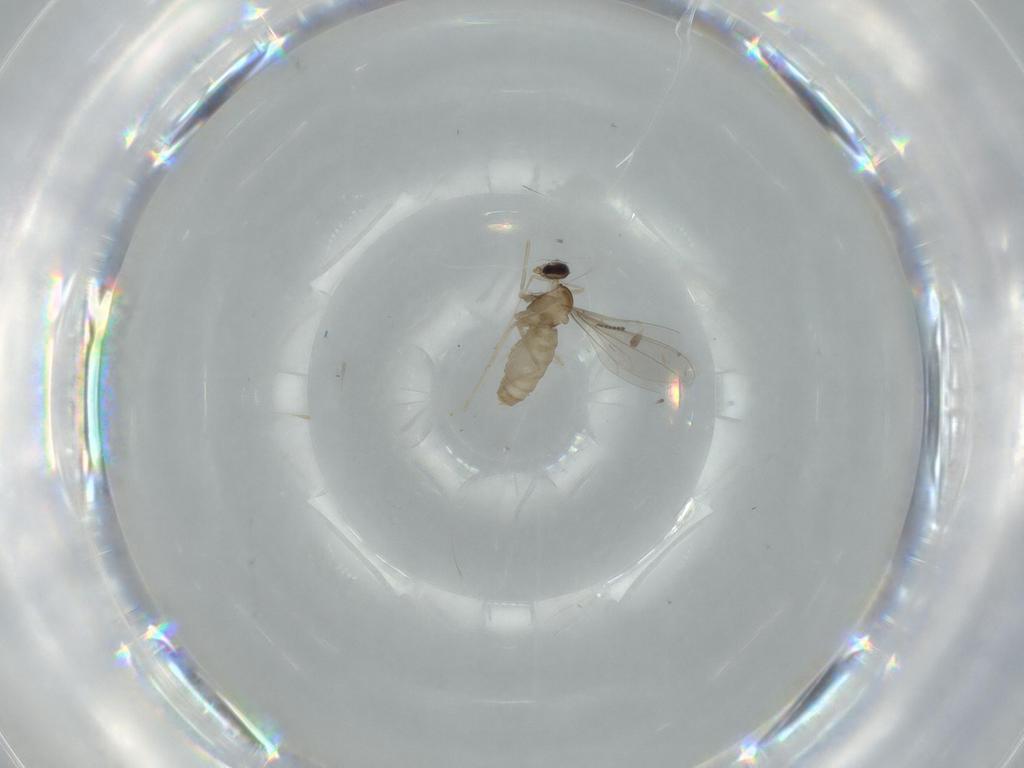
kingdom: Animalia
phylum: Arthropoda
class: Insecta
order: Diptera
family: Cecidomyiidae
